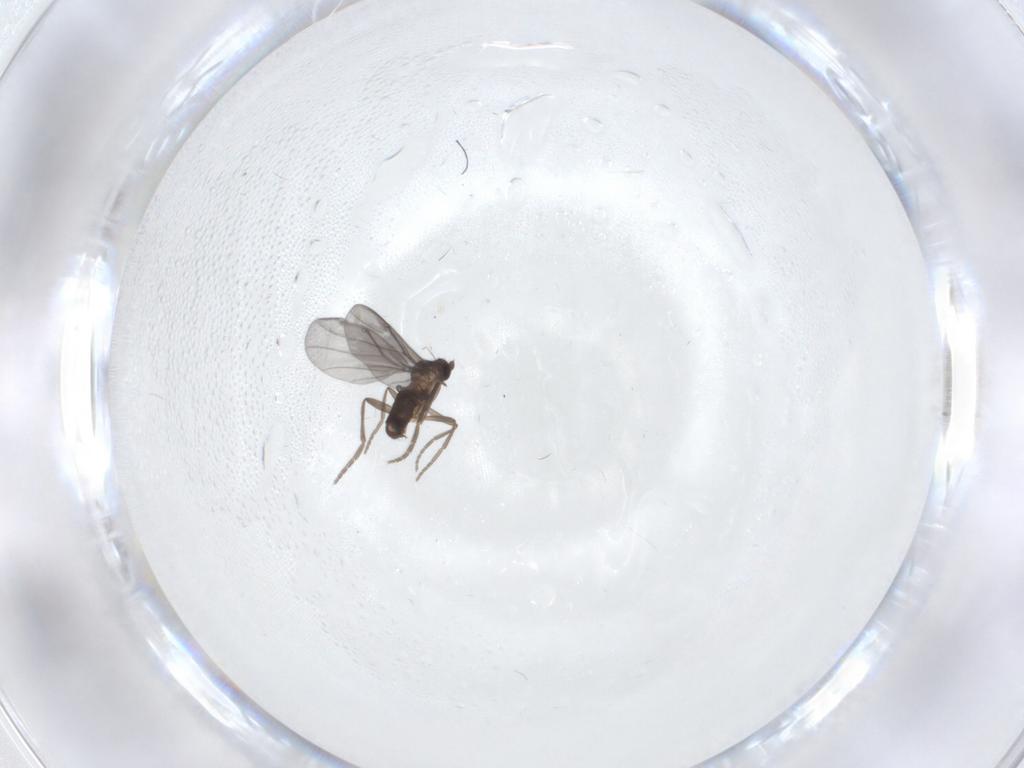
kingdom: Animalia
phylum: Arthropoda
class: Insecta
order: Diptera
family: Phoridae
